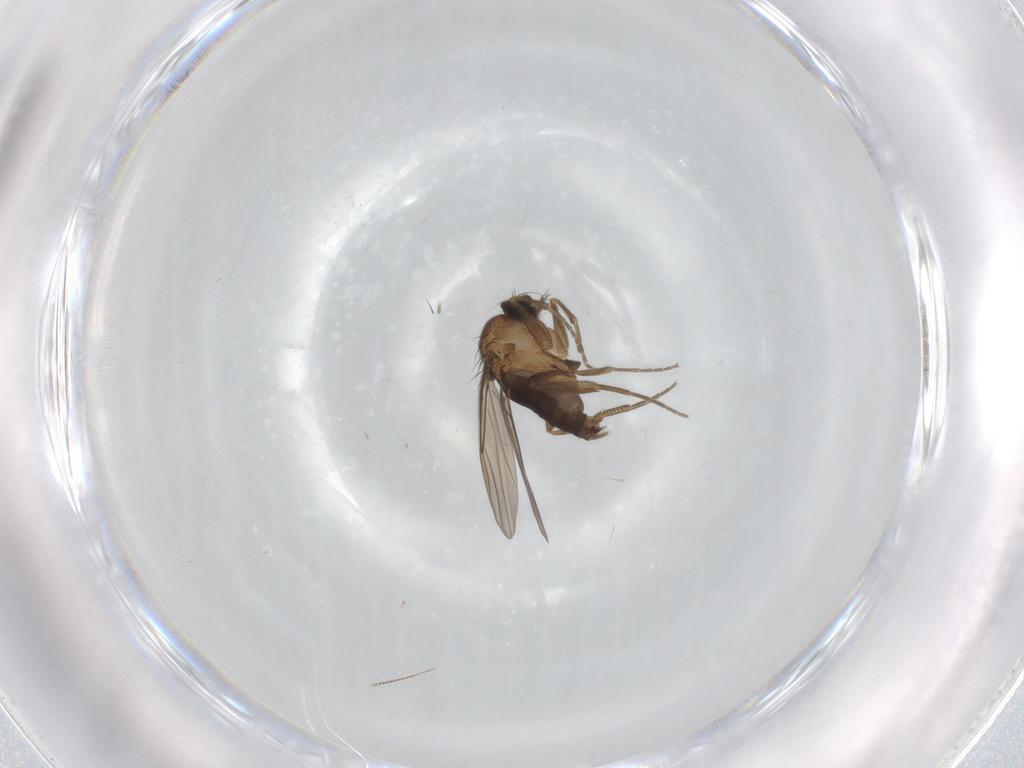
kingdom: Animalia
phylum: Arthropoda
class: Insecta
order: Diptera
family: Phoridae
